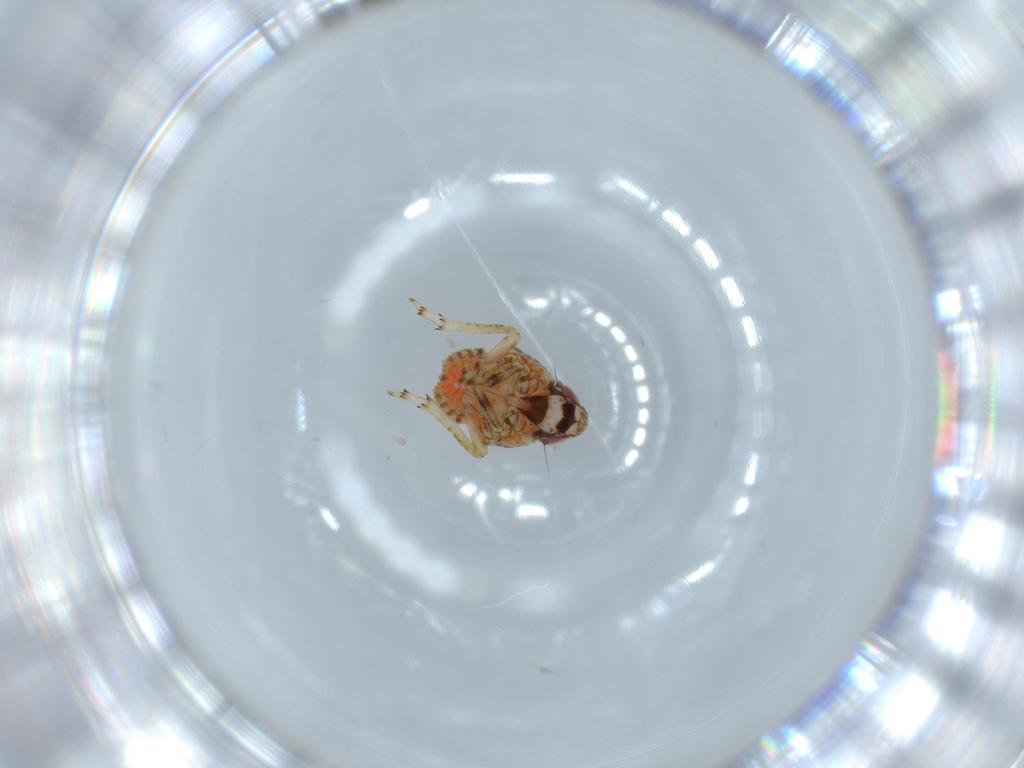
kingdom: Animalia
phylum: Arthropoda
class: Insecta
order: Hemiptera
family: Issidae
